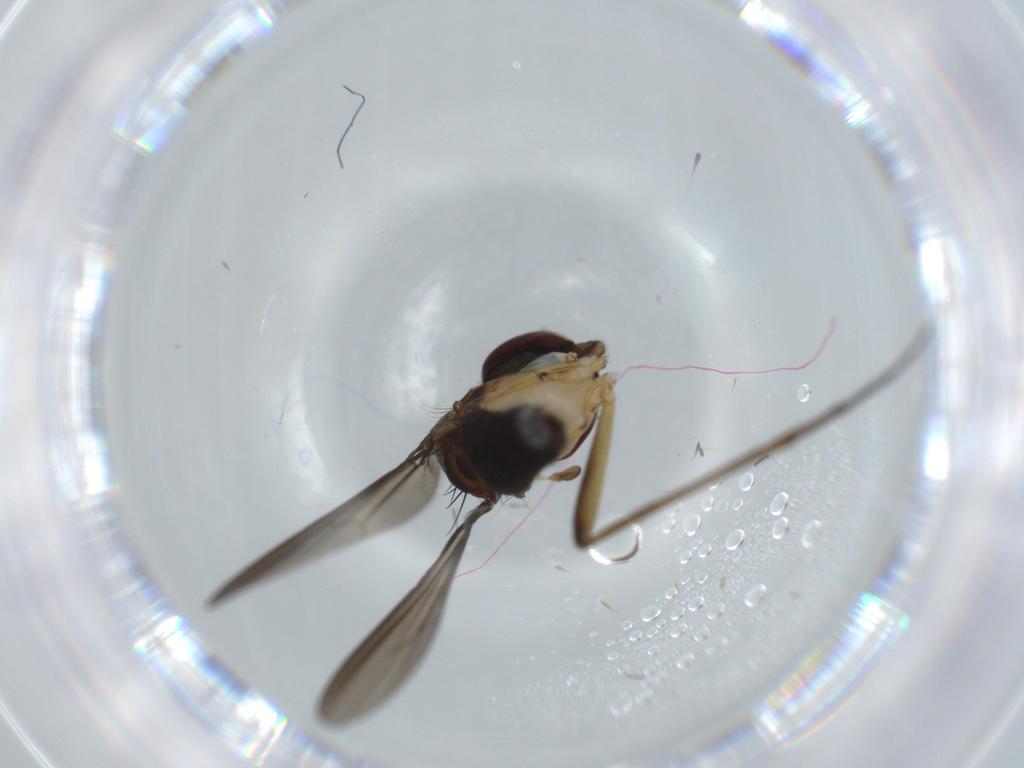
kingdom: Animalia
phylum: Arthropoda
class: Insecta
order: Diptera
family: Dolichopodidae
